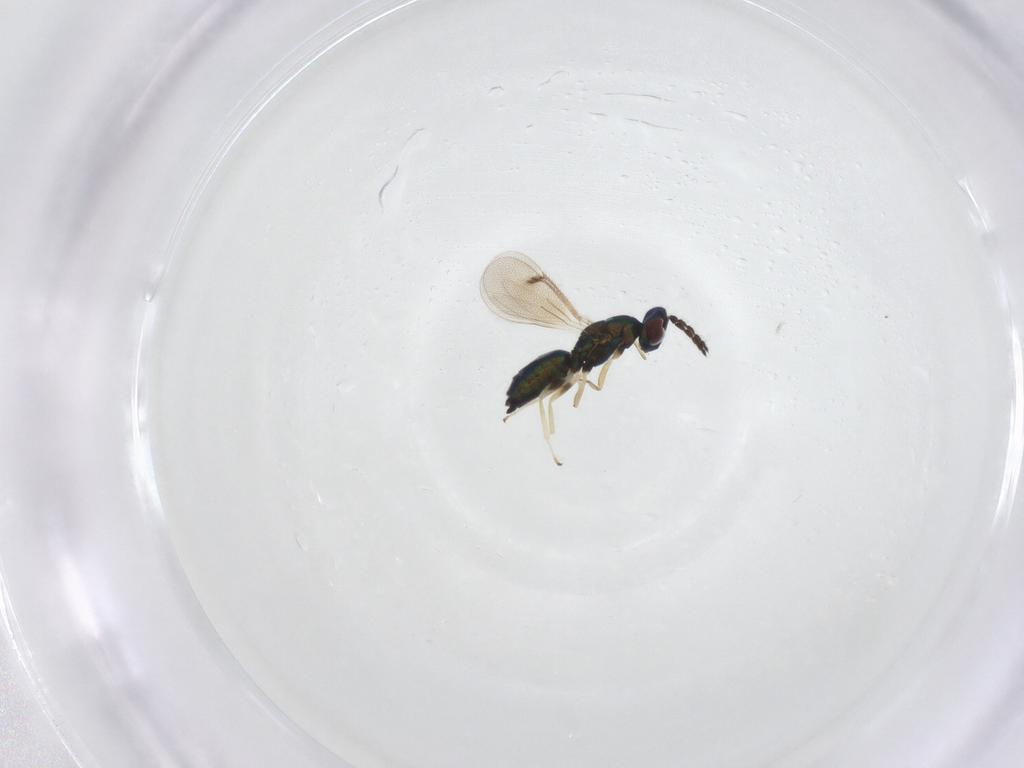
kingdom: Animalia
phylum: Arthropoda
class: Insecta
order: Hymenoptera
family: Eulophidae
